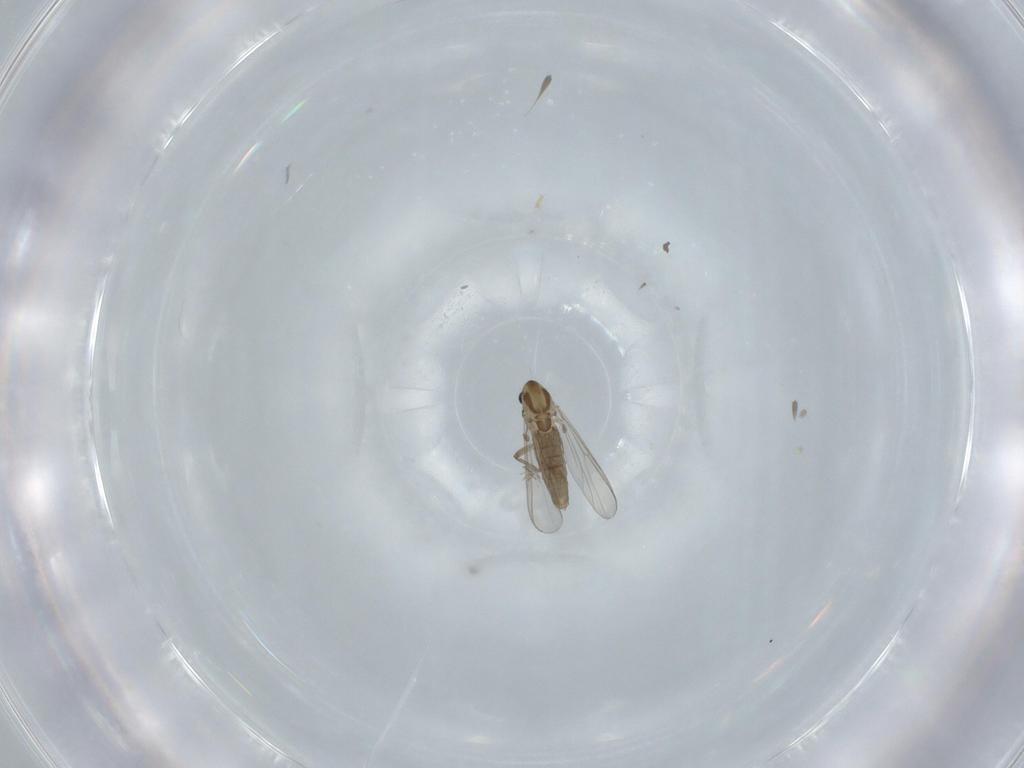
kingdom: Animalia
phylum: Arthropoda
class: Insecta
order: Diptera
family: Chironomidae
